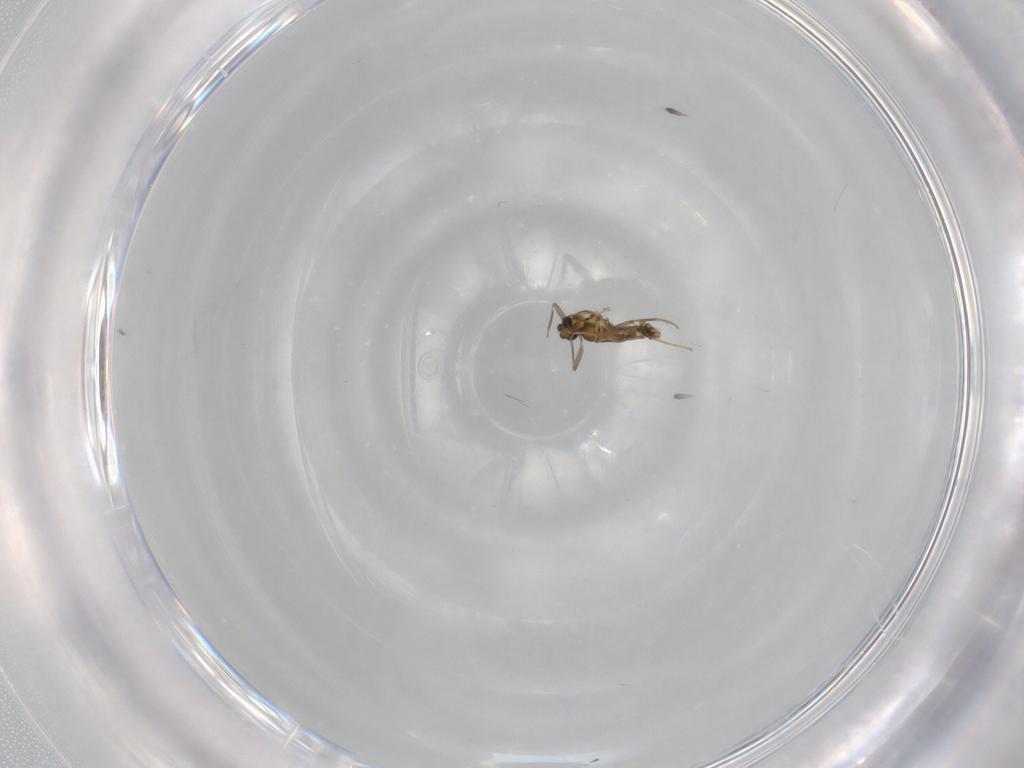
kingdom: Animalia
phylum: Arthropoda
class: Insecta
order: Diptera
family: Chironomidae
